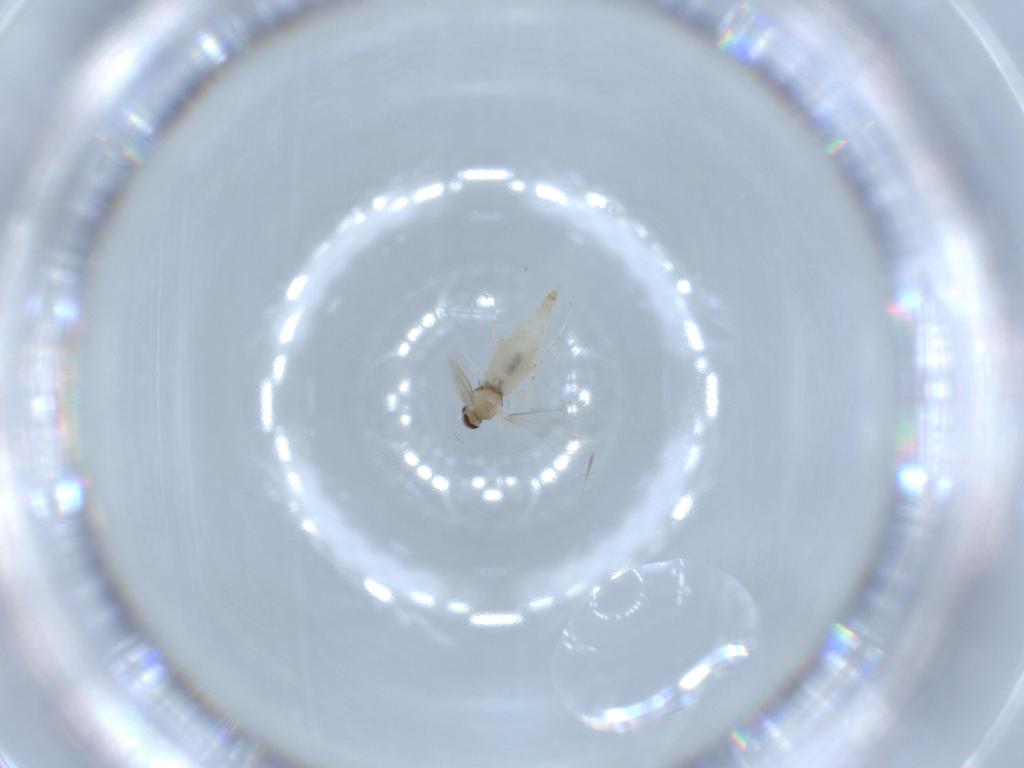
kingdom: Animalia
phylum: Arthropoda
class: Insecta
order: Diptera
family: Cecidomyiidae
